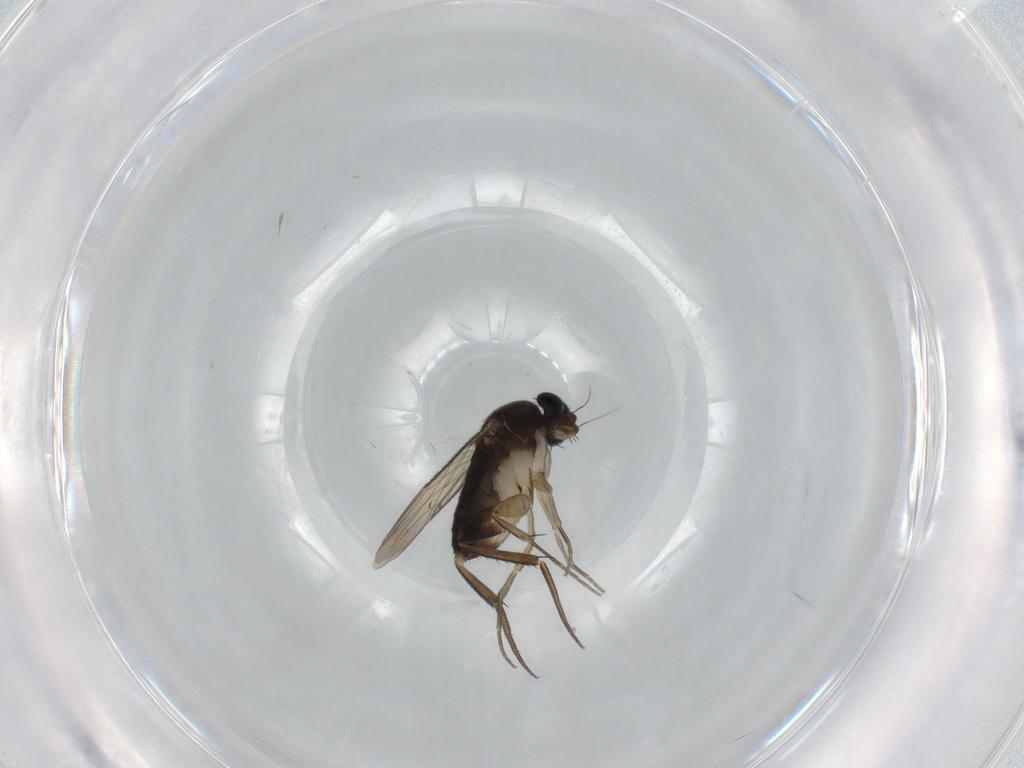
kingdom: Animalia
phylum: Arthropoda
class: Insecta
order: Diptera
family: Phoridae
